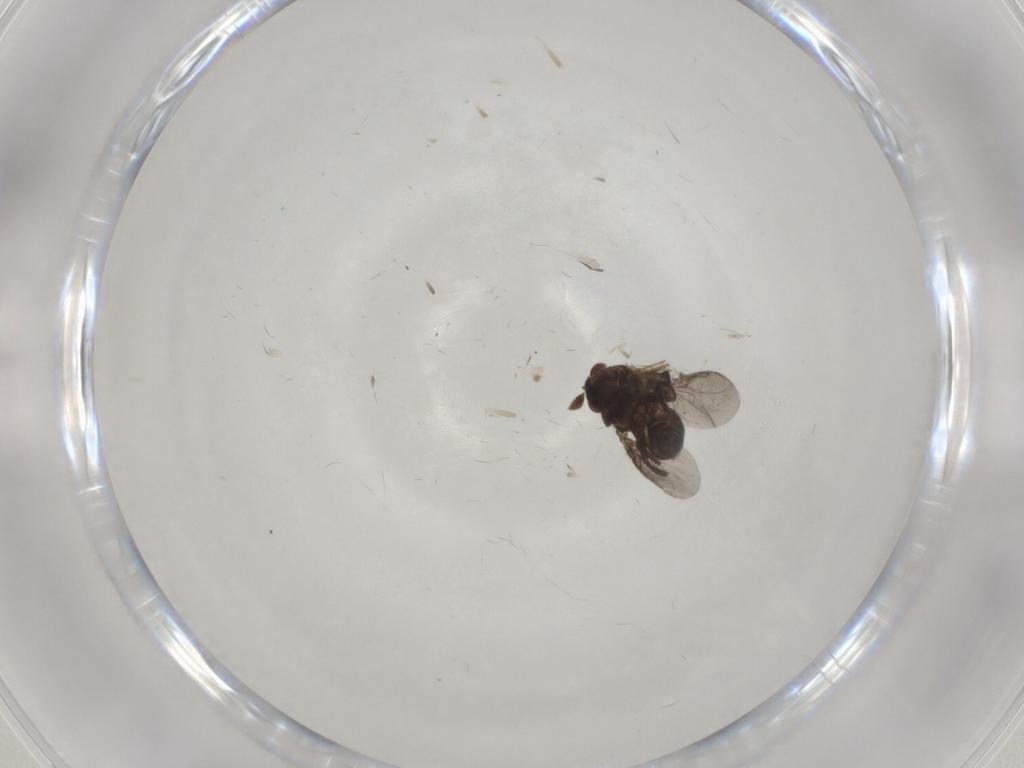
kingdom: Animalia
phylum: Arthropoda
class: Insecta
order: Diptera
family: Sphaeroceridae
